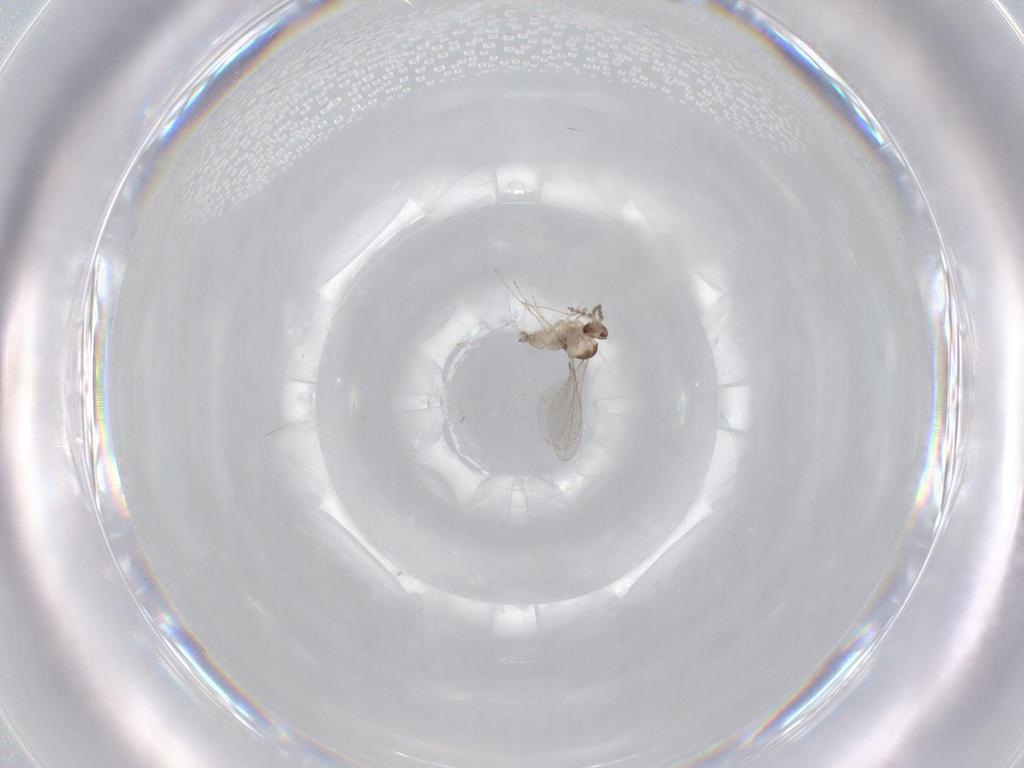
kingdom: Animalia
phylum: Arthropoda
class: Insecta
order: Diptera
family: Cecidomyiidae
